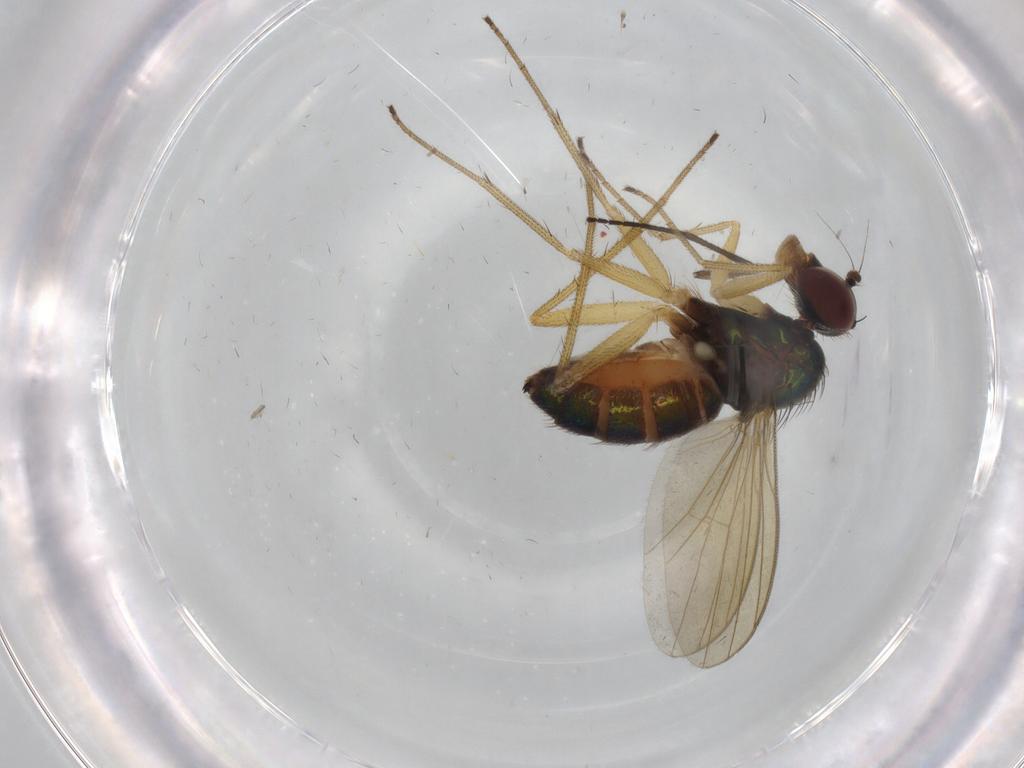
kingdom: Animalia
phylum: Arthropoda
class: Insecta
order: Diptera
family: Dolichopodidae
